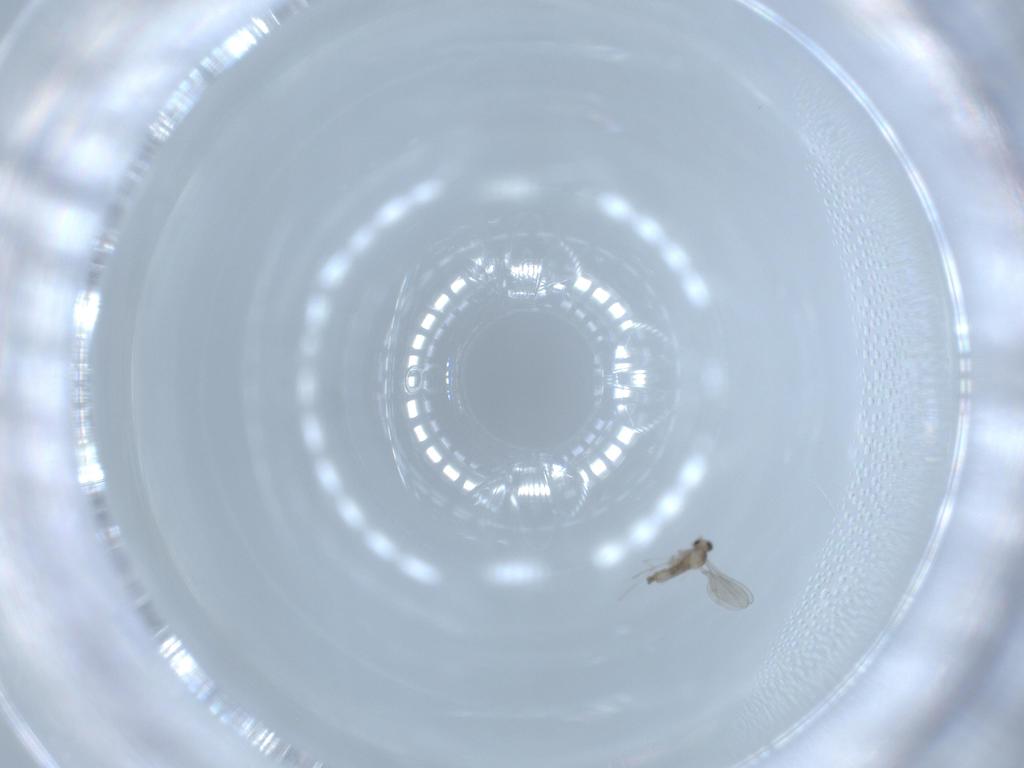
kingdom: Animalia
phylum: Arthropoda
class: Insecta
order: Diptera
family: Cecidomyiidae
